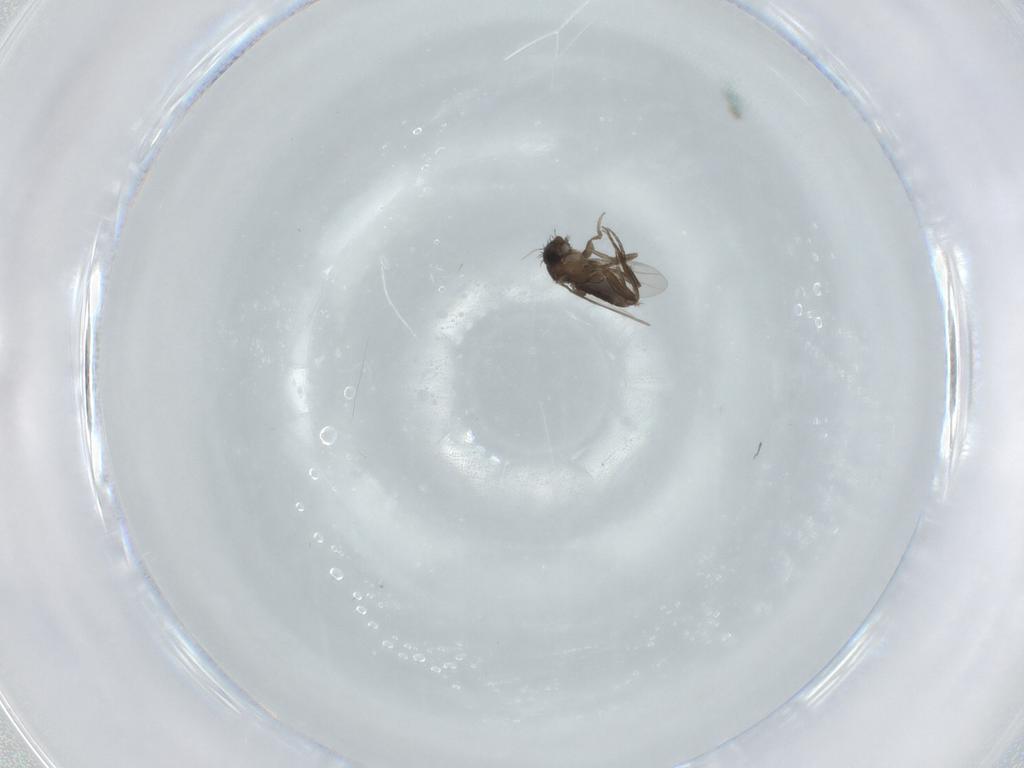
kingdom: Animalia
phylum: Arthropoda
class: Insecta
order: Diptera
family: Phoridae
